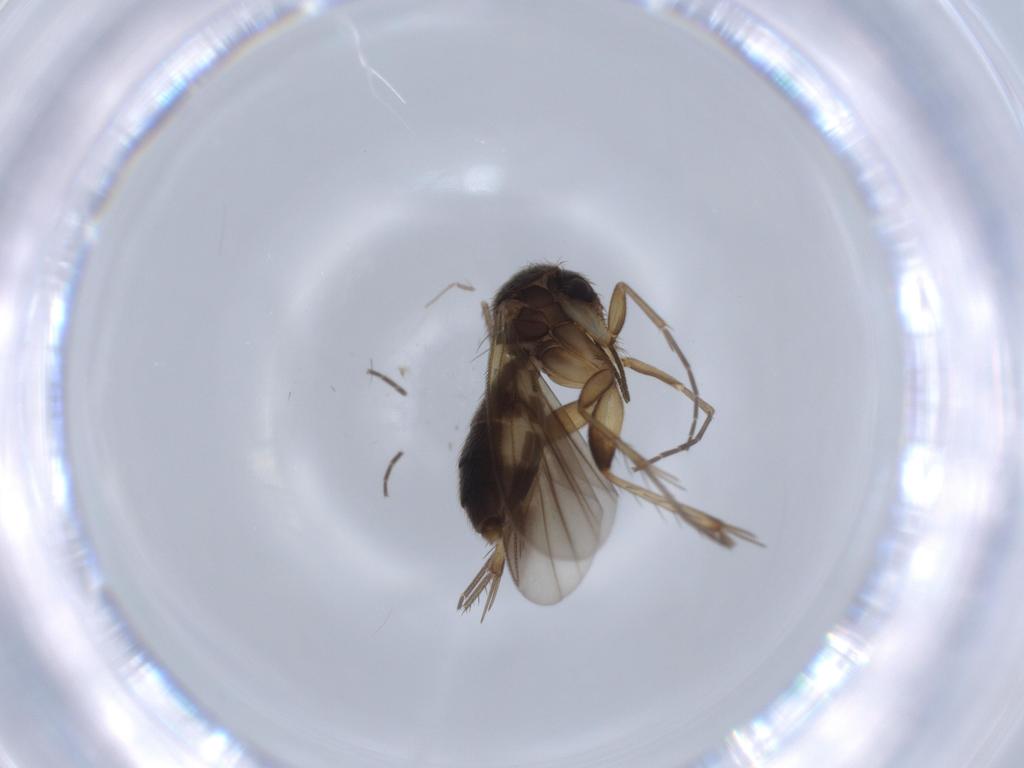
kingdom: Animalia
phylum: Arthropoda
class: Insecta
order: Diptera
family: Mycetophilidae
